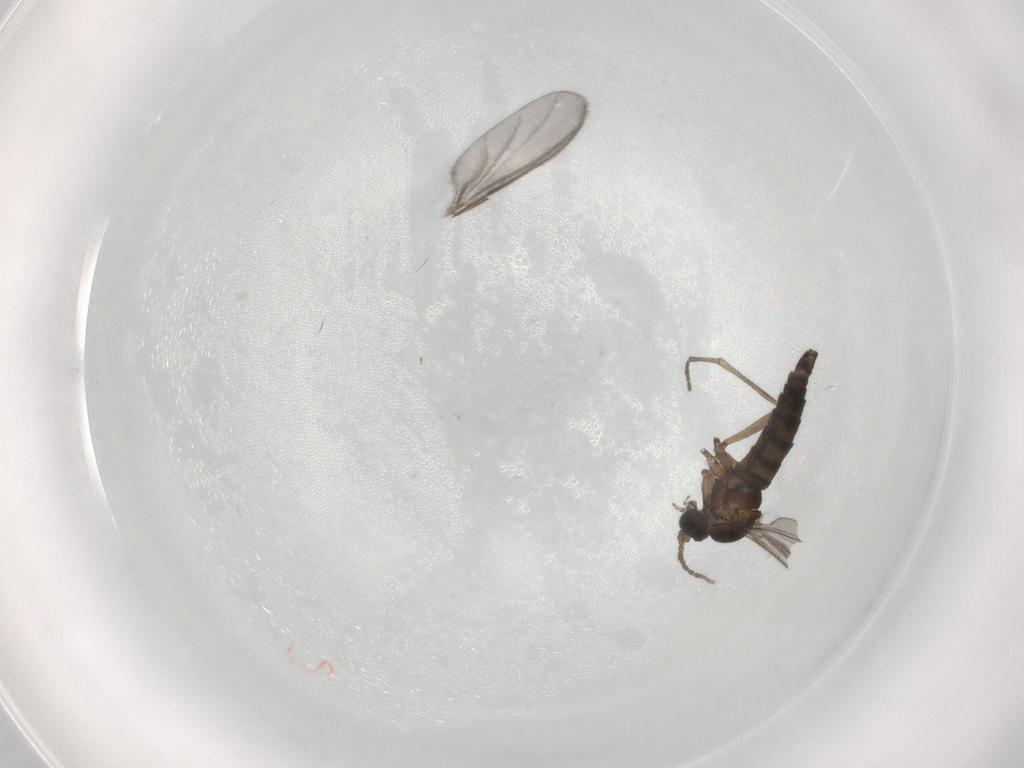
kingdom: Animalia
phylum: Arthropoda
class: Insecta
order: Diptera
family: Sciaridae
